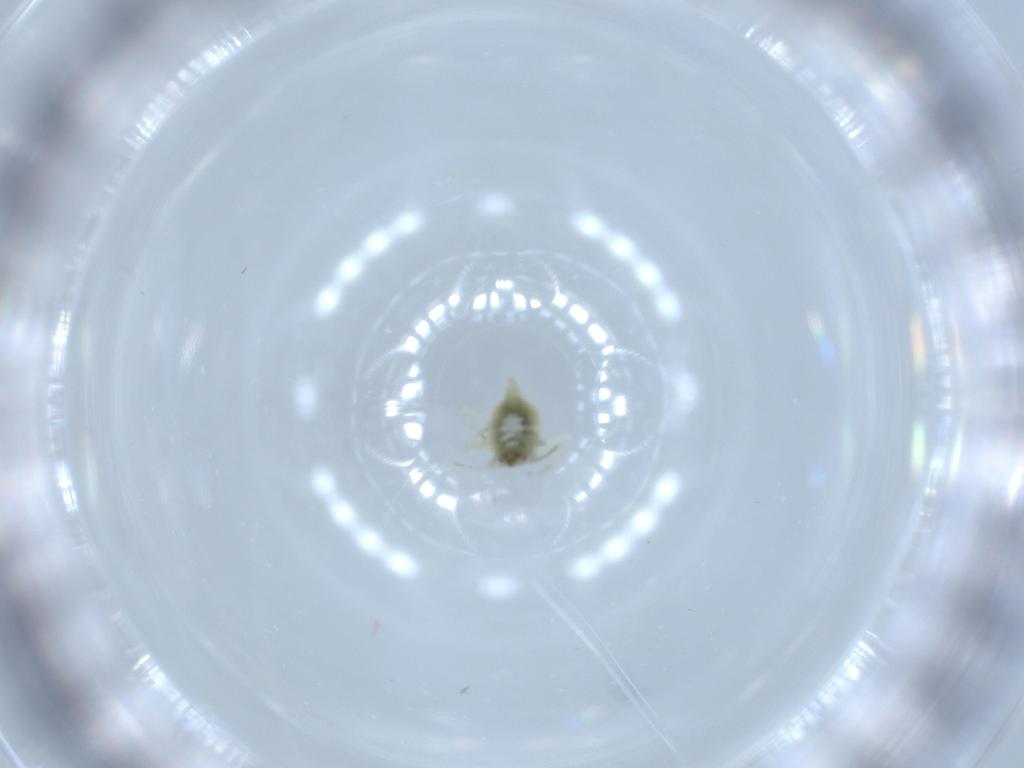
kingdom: Animalia
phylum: Arthropoda
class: Insecta
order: Neuroptera
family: Coniopterygidae
